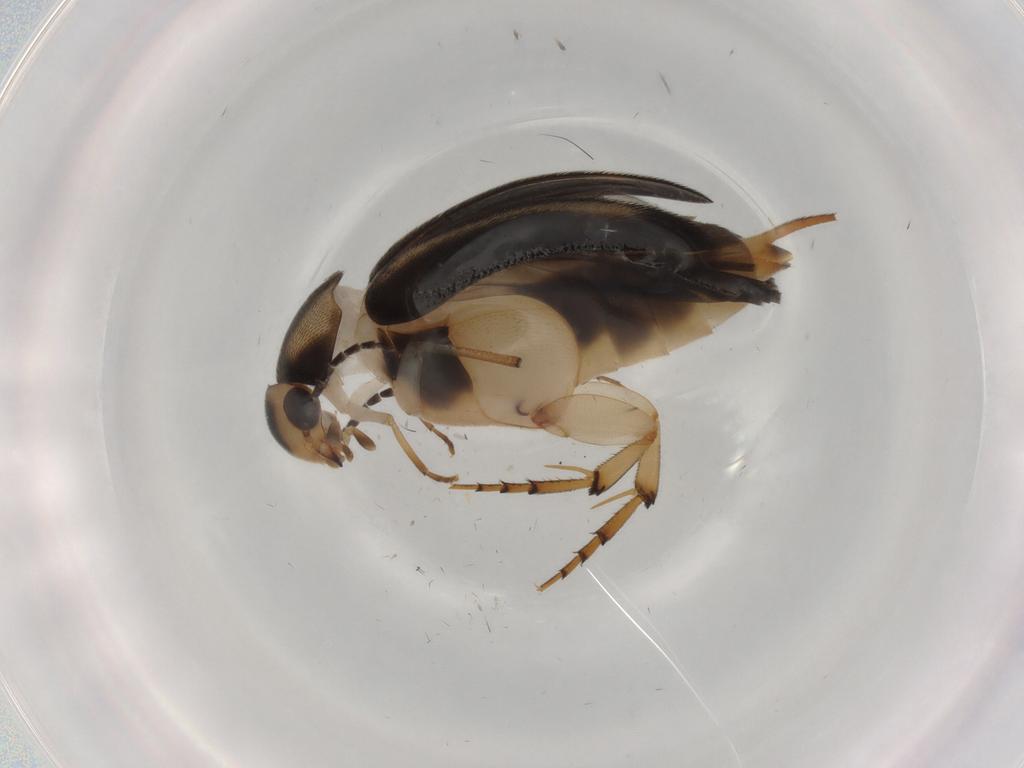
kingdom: Animalia
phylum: Arthropoda
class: Insecta
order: Coleoptera
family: Mordellidae
